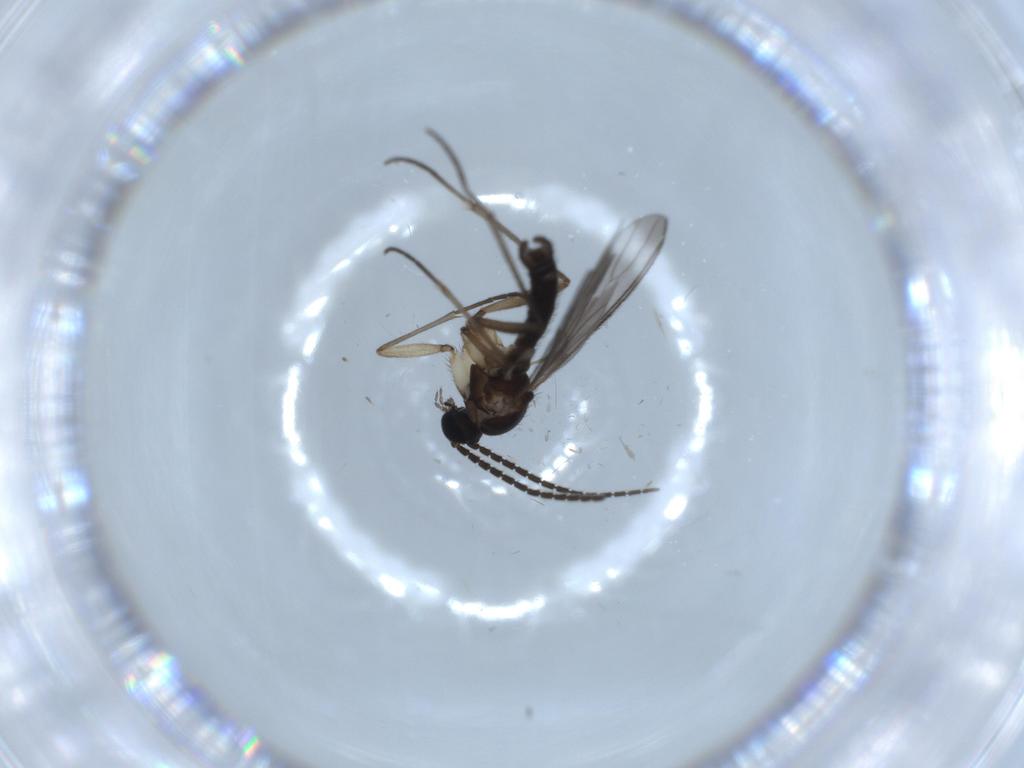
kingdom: Animalia
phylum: Arthropoda
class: Insecta
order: Diptera
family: Sciaridae
